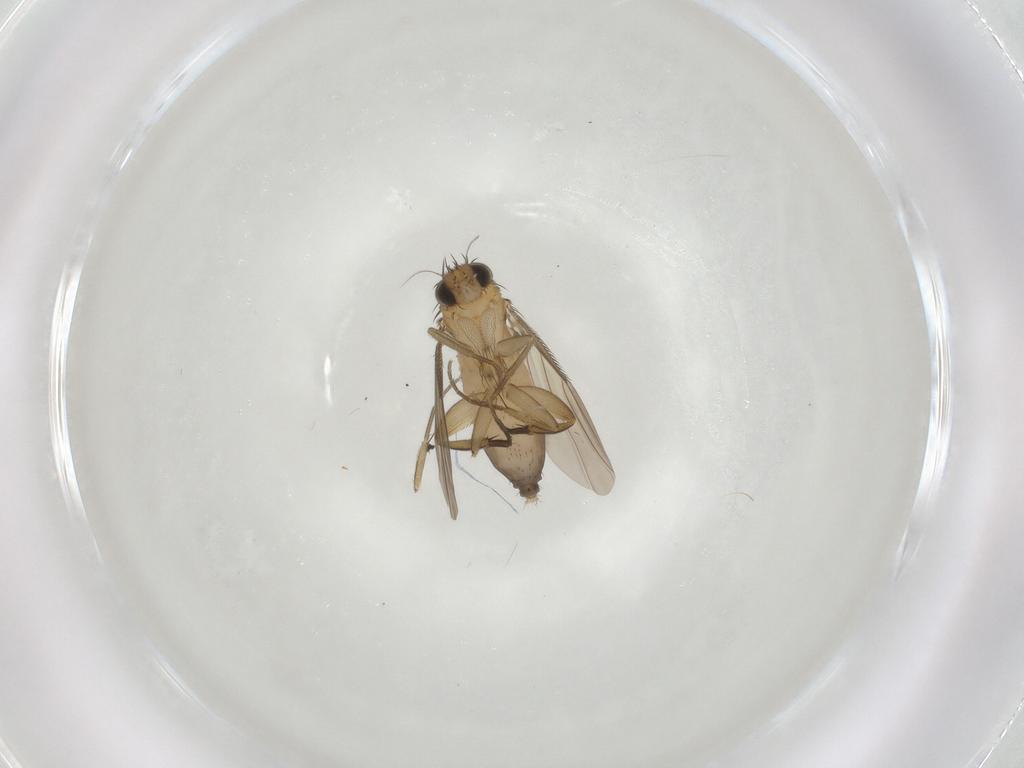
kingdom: Animalia
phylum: Arthropoda
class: Insecta
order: Diptera
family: Phoridae
